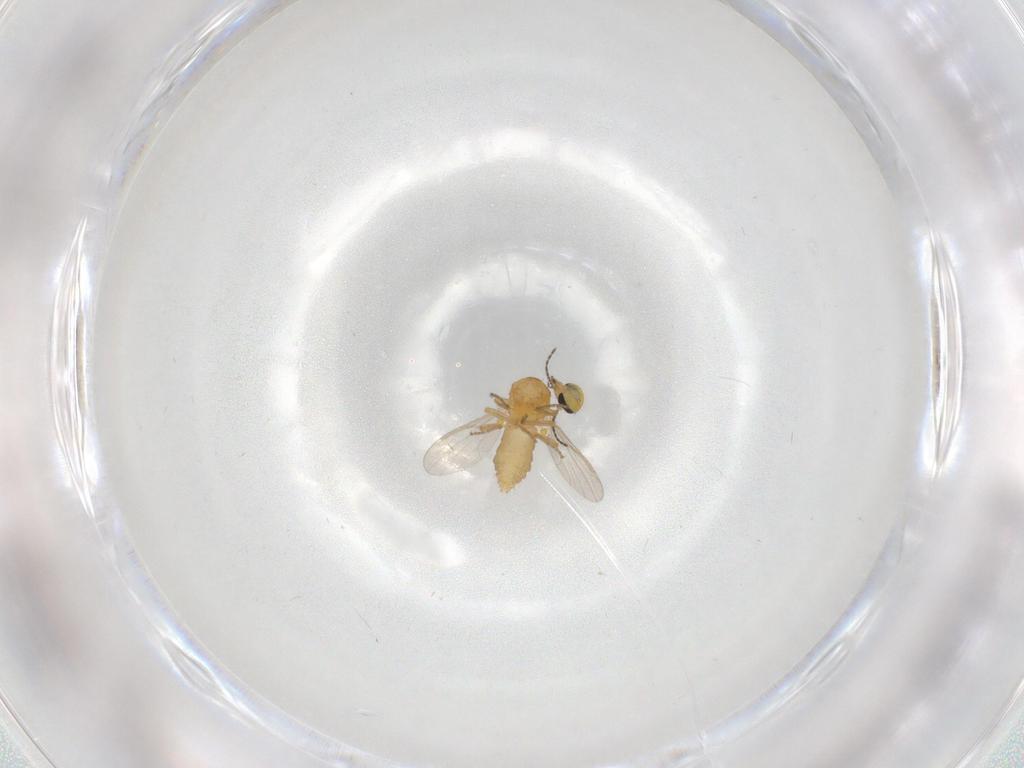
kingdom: Animalia
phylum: Arthropoda
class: Insecta
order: Diptera
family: Ceratopogonidae
